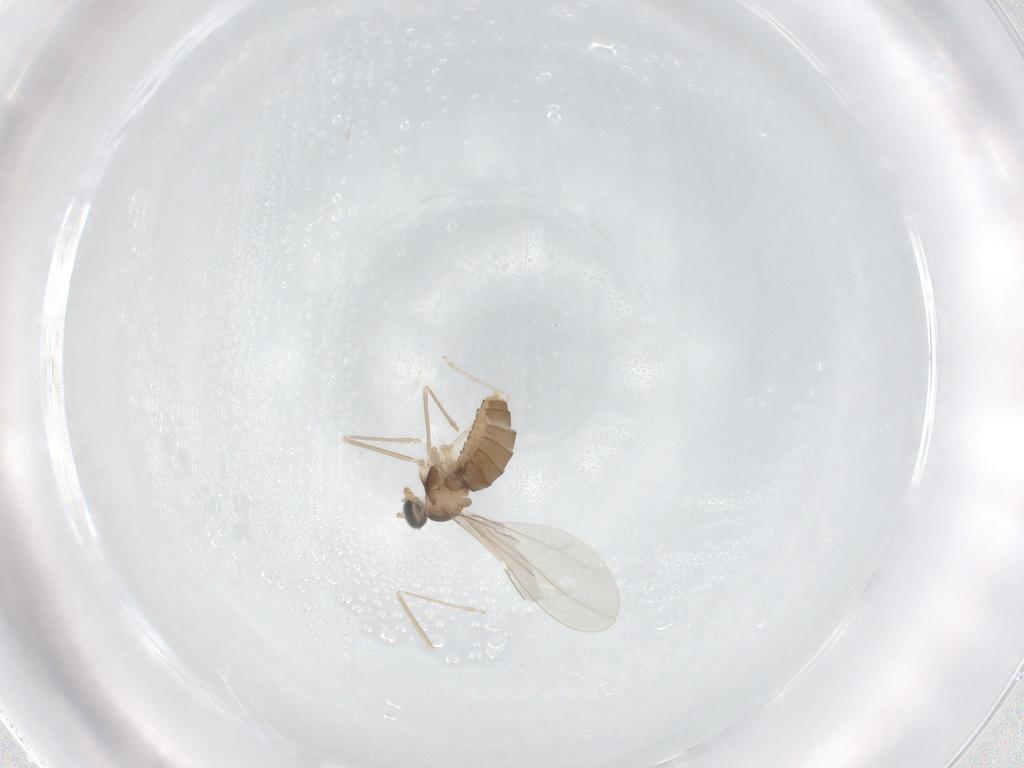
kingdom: Animalia
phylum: Arthropoda
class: Insecta
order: Diptera
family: Cecidomyiidae
